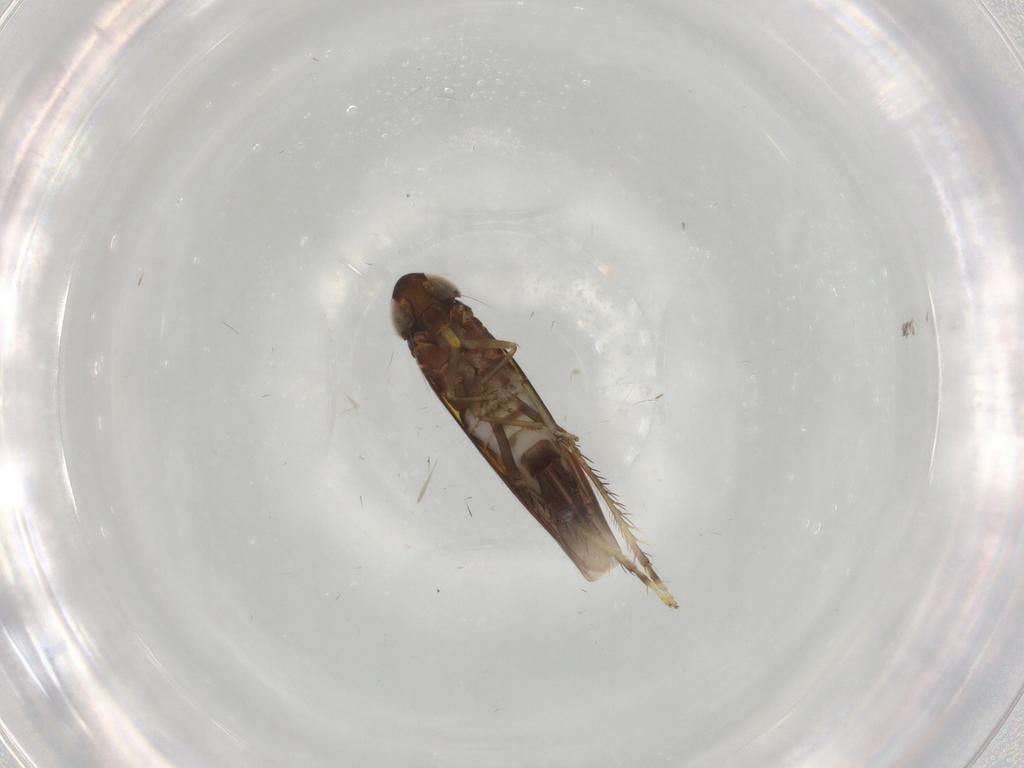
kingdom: Animalia
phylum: Arthropoda
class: Insecta
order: Hemiptera
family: Cicadellidae
